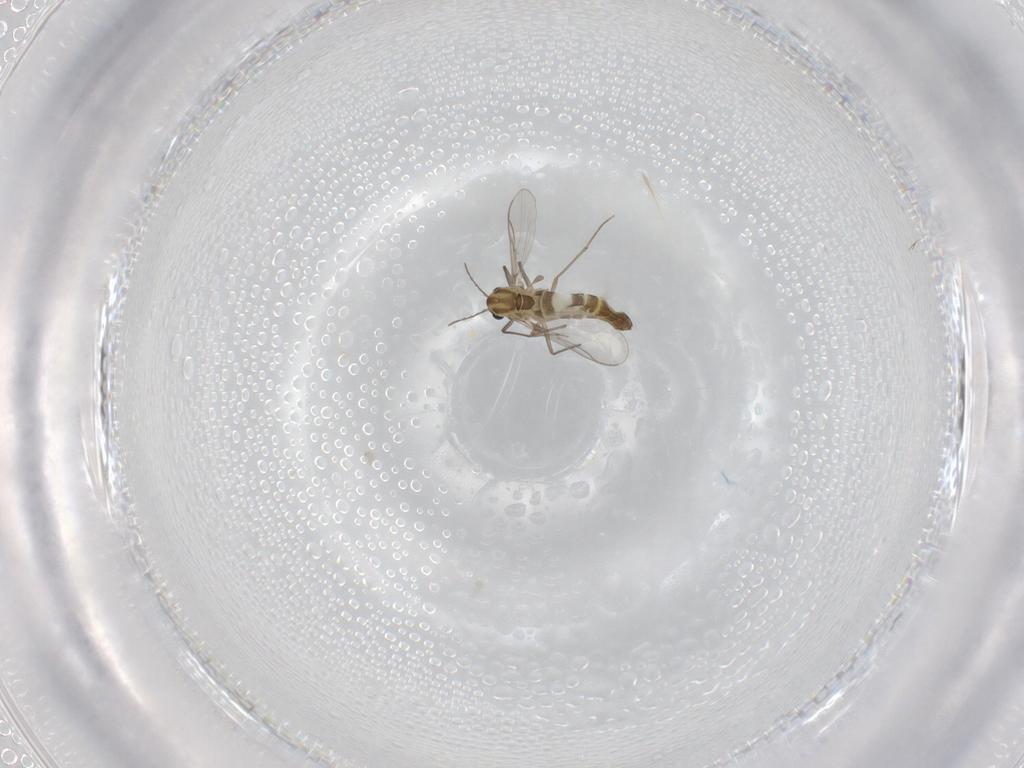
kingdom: Animalia
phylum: Arthropoda
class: Insecta
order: Diptera
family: Chironomidae
